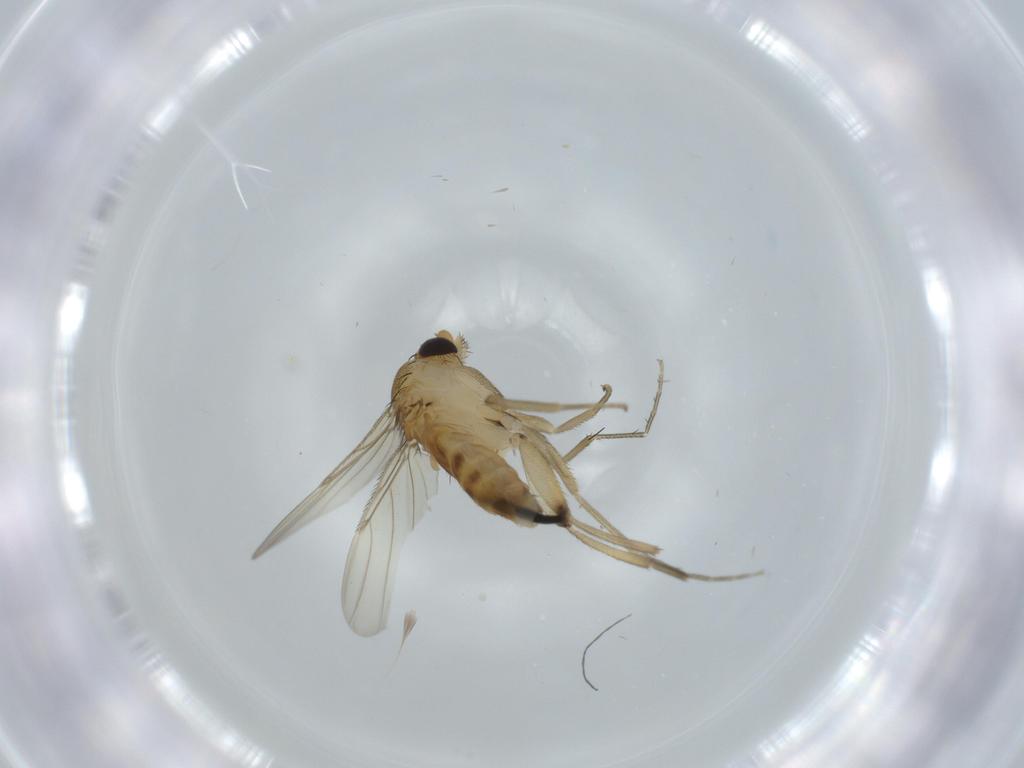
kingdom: Animalia
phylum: Arthropoda
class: Insecta
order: Diptera
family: Phoridae
